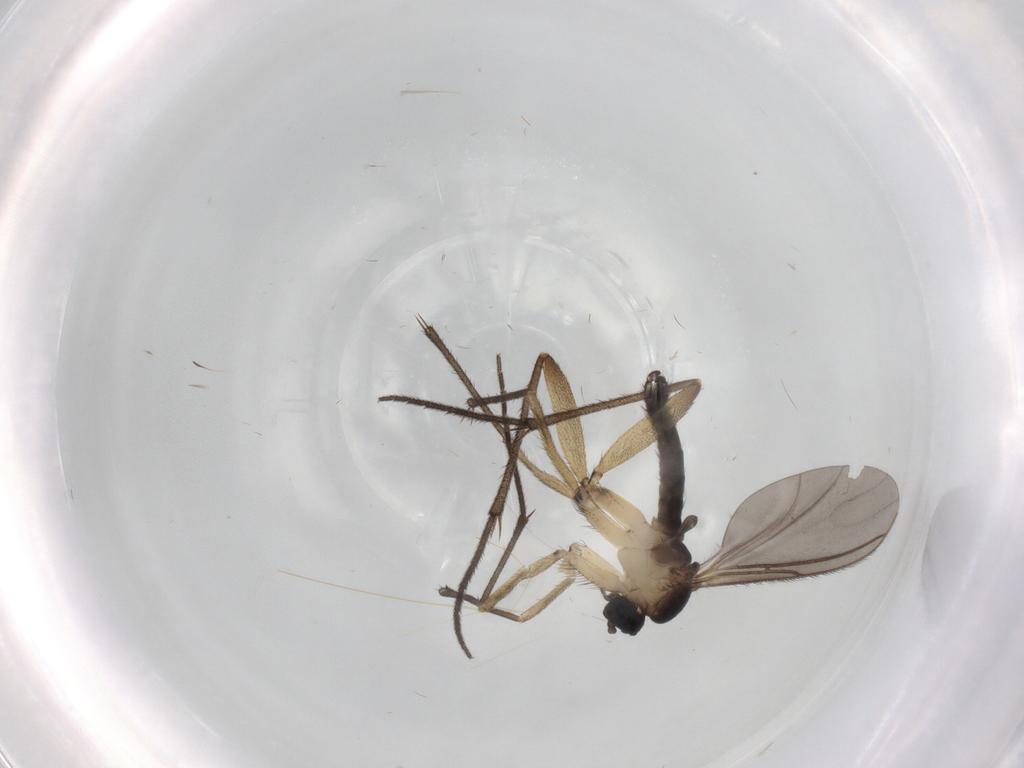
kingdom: Animalia
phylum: Arthropoda
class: Insecta
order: Diptera
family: Sciaridae
